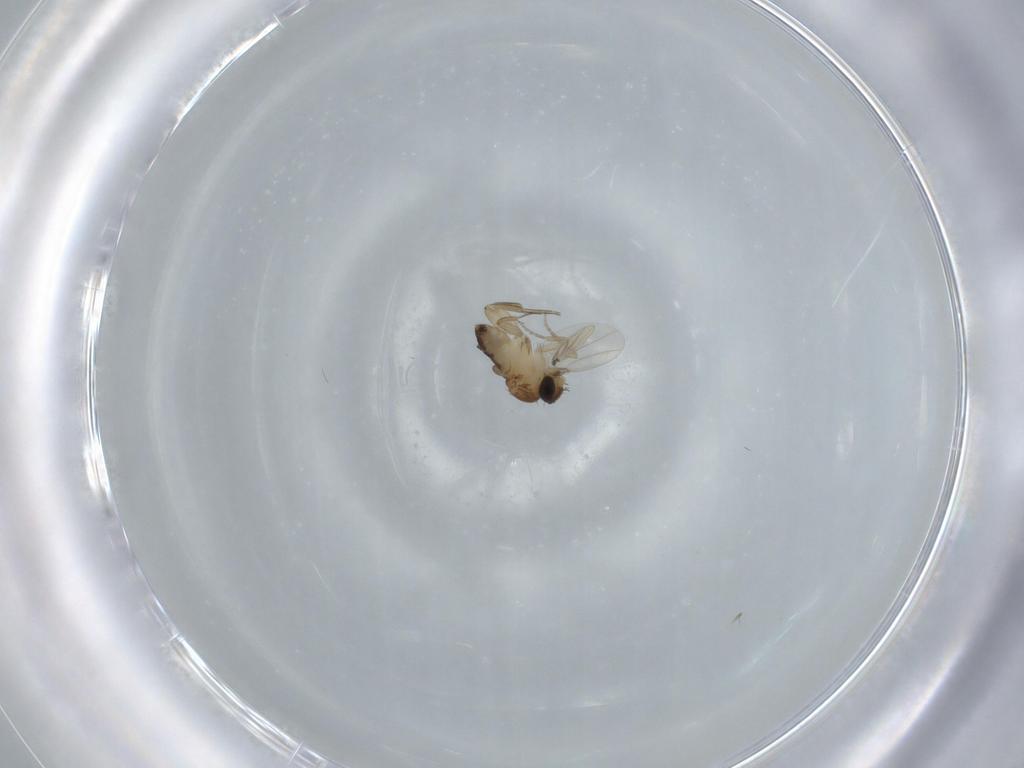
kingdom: Animalia
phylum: Arthropoda
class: Insecta
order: Diptera
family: Phoridae
